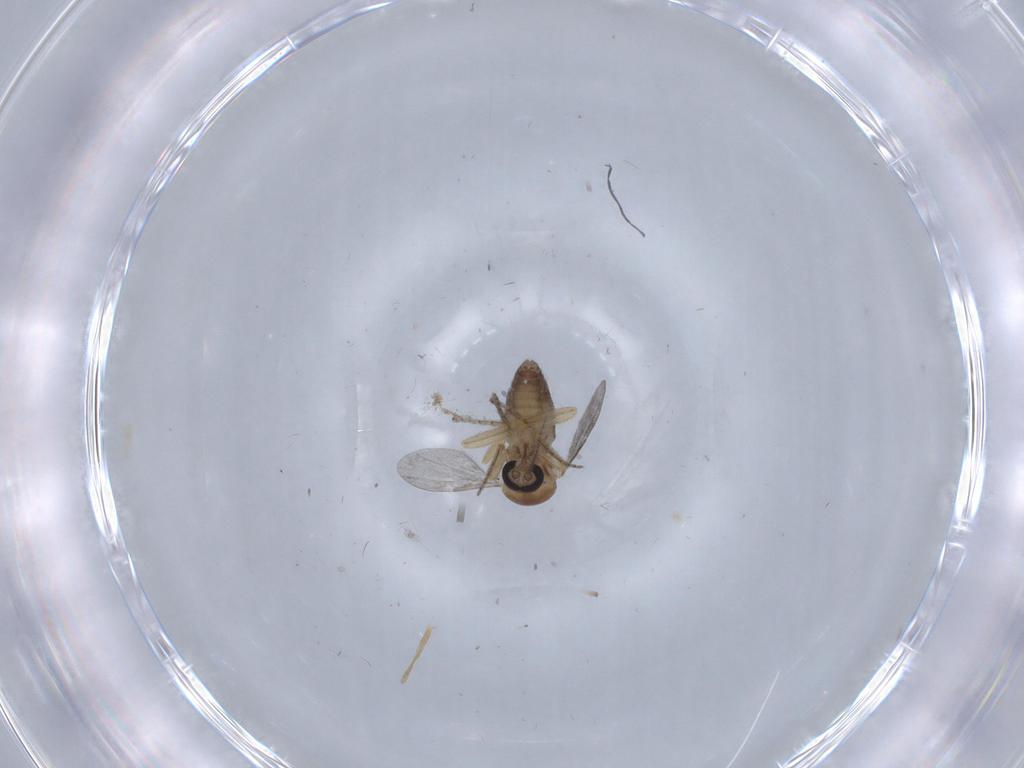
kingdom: Animalia
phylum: Arthropoda
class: Insecta
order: Diptera
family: Ceratopogonidae
